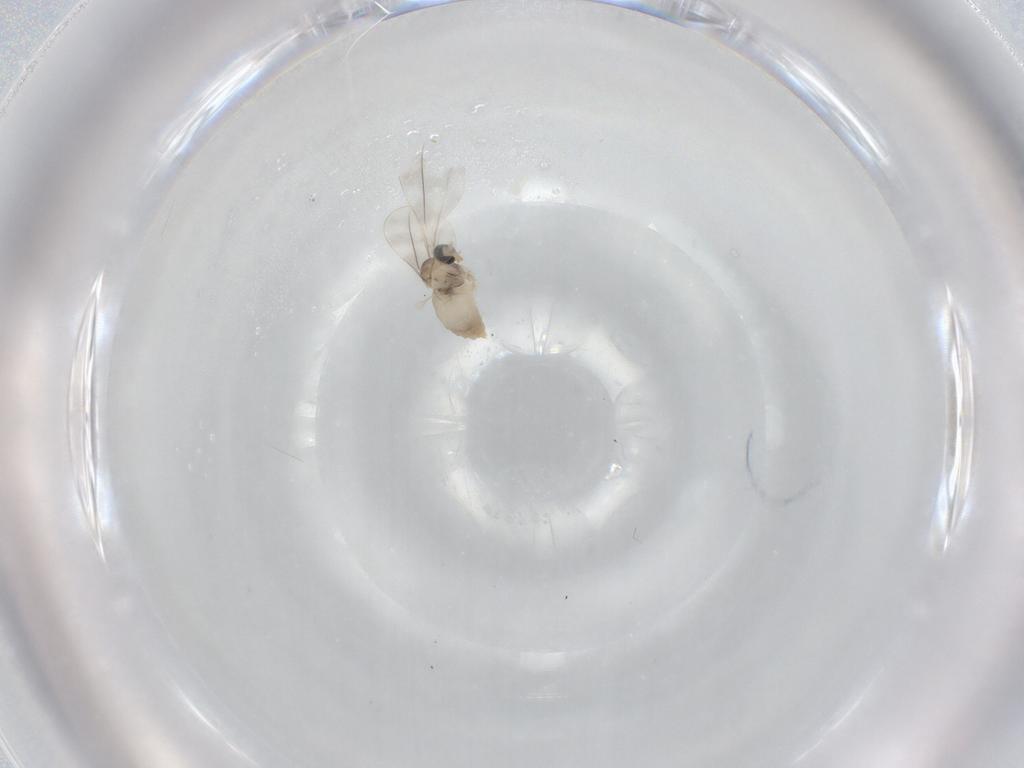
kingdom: Animalia
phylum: Arthropoda
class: Insecta
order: Diptera
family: Cecidomyiidae
